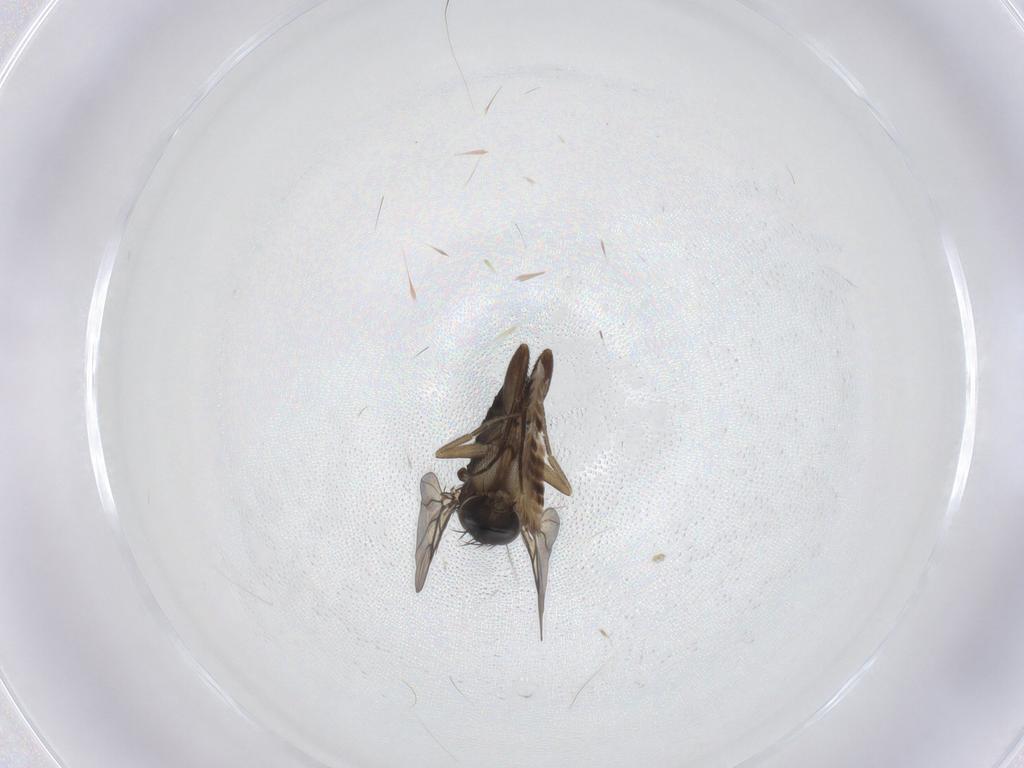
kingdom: Animalia
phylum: Arthropoda
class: Insecta
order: Diptera
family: Phoridae
